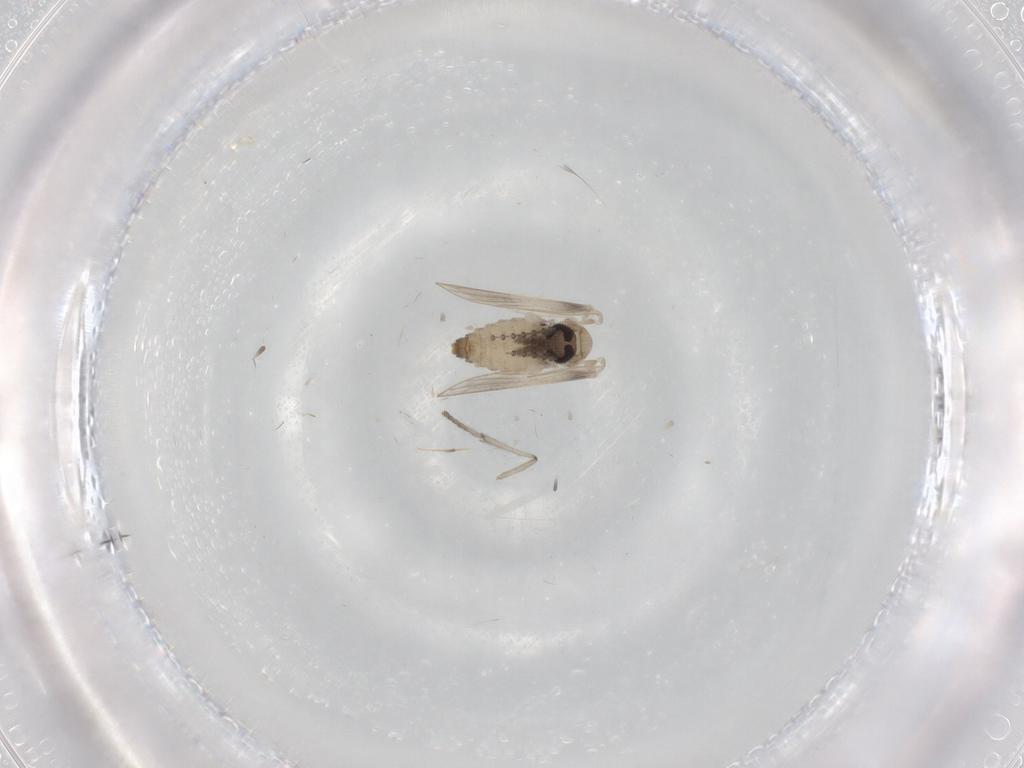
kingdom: Animalia
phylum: Arthropoda
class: Insecta
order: Diptera
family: Psychodidae
